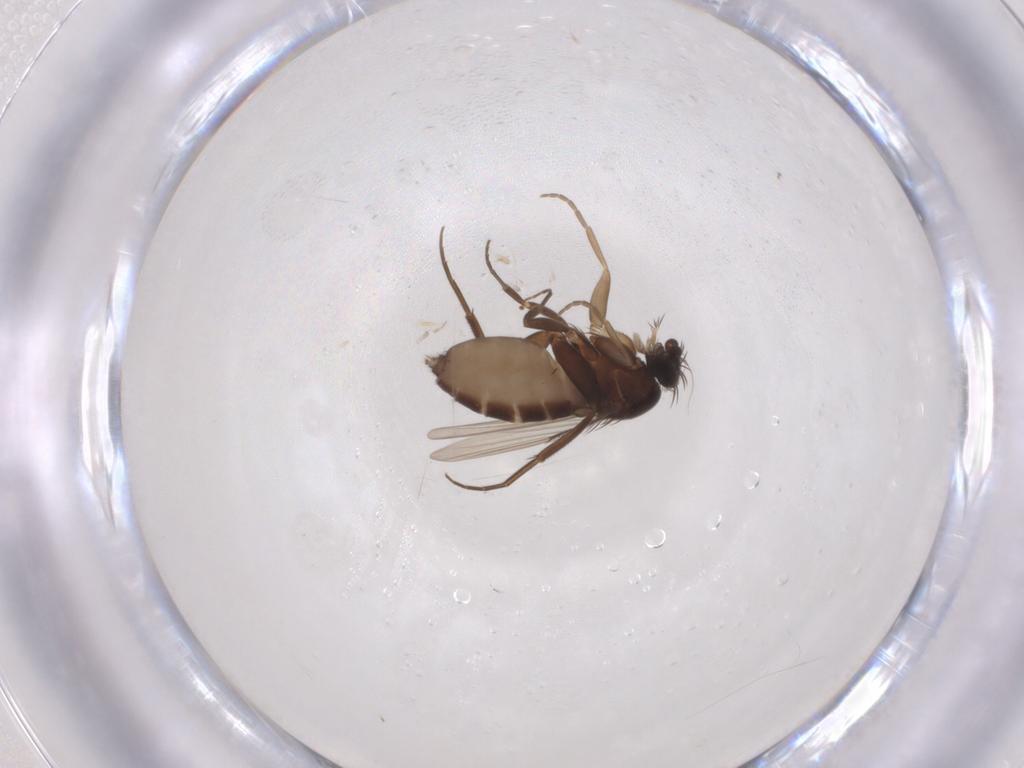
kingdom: Animalia
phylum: Arthropoda
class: Insecta
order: Diptera
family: Phoridae
